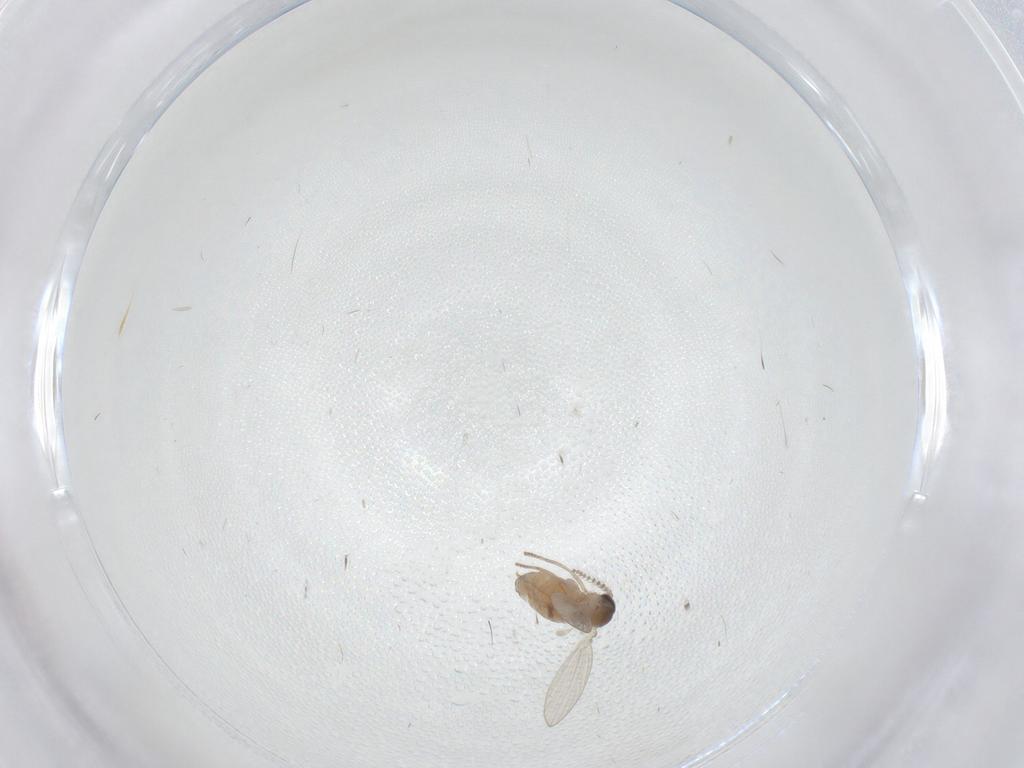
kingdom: Animalia
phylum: Arthropoda
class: Insecta
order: Diptera
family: Psychodidae
